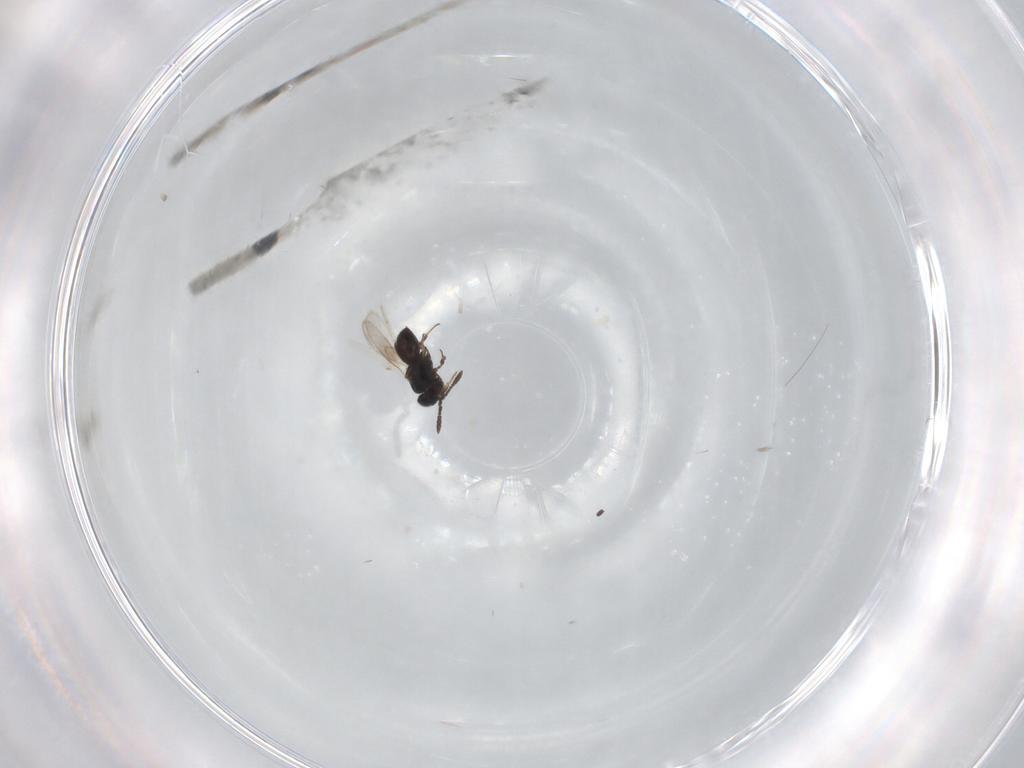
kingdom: Animalia
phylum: Arthropoda
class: Insecta
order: Hymenoptera
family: Scelionidae
